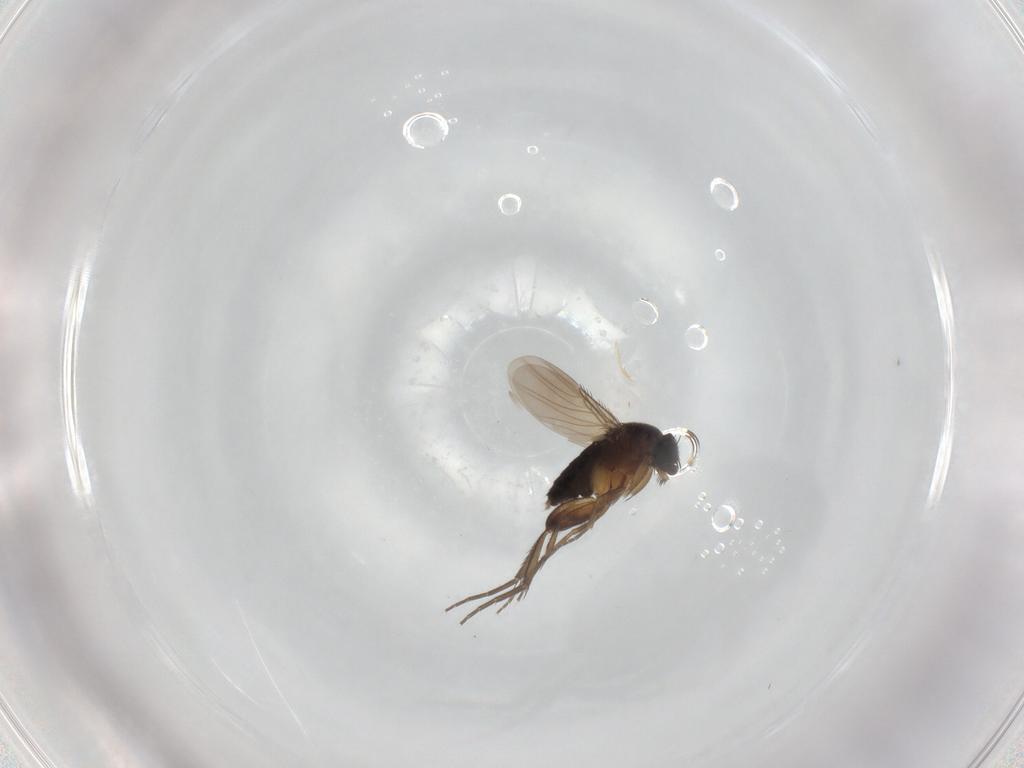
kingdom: Animalia
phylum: Arthropoda
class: Insecta
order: Diptera
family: Phoridae
